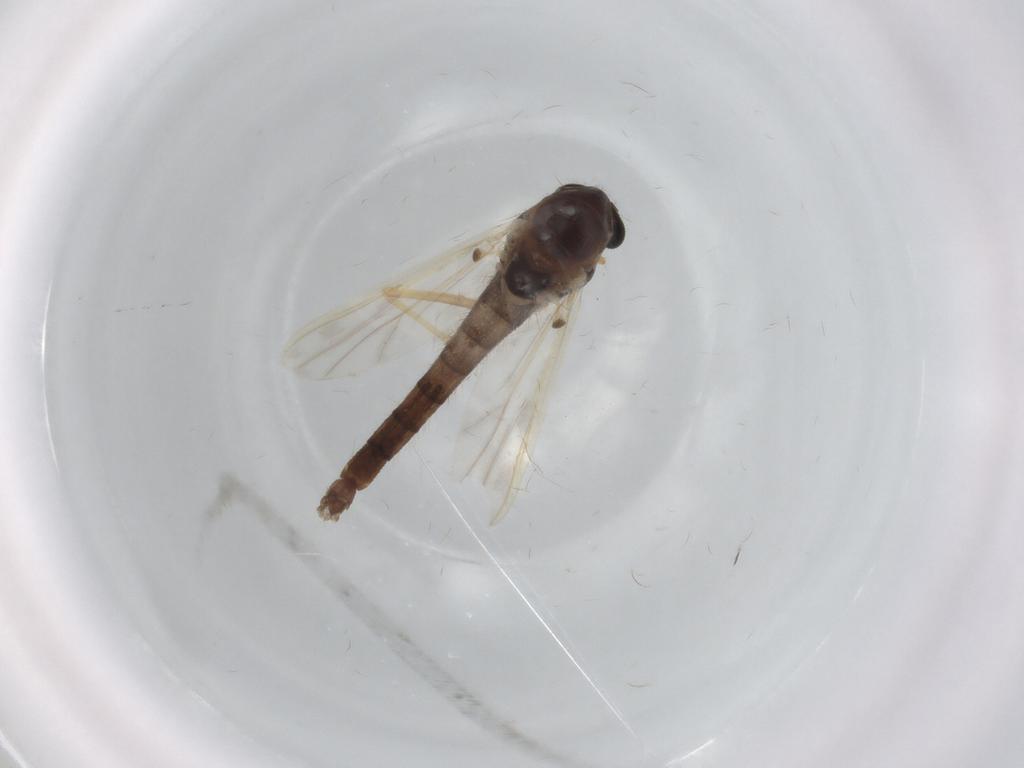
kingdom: Animalia
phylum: Arthropoda
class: Insecta
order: Diptera
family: Chironomidae
